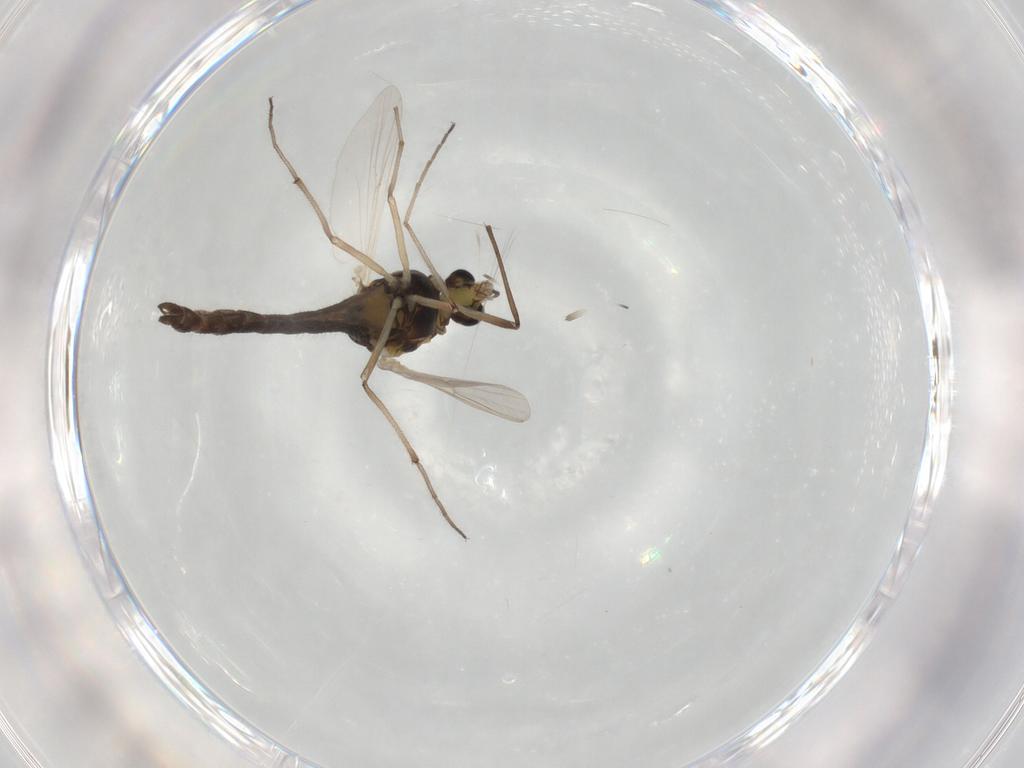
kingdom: Animalia
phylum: Arthropoda
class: Insecta
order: Diptera
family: Chironomidae
